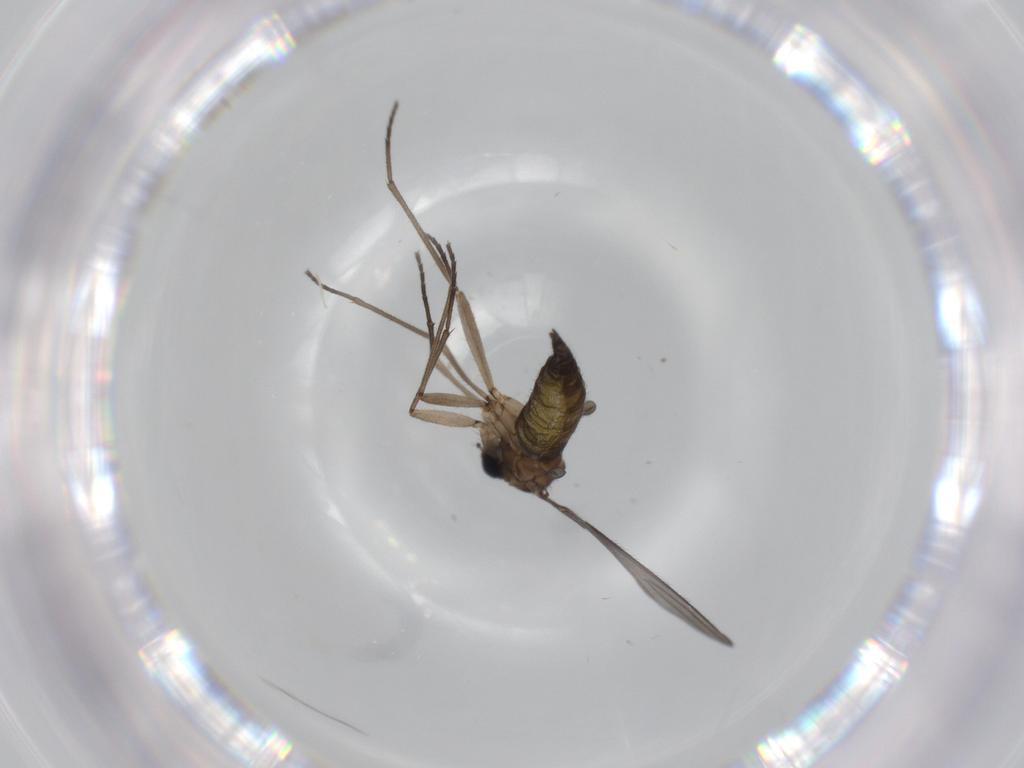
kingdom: Animalia
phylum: Arthropoda
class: Insecta
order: Diptera
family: Sciaridae
